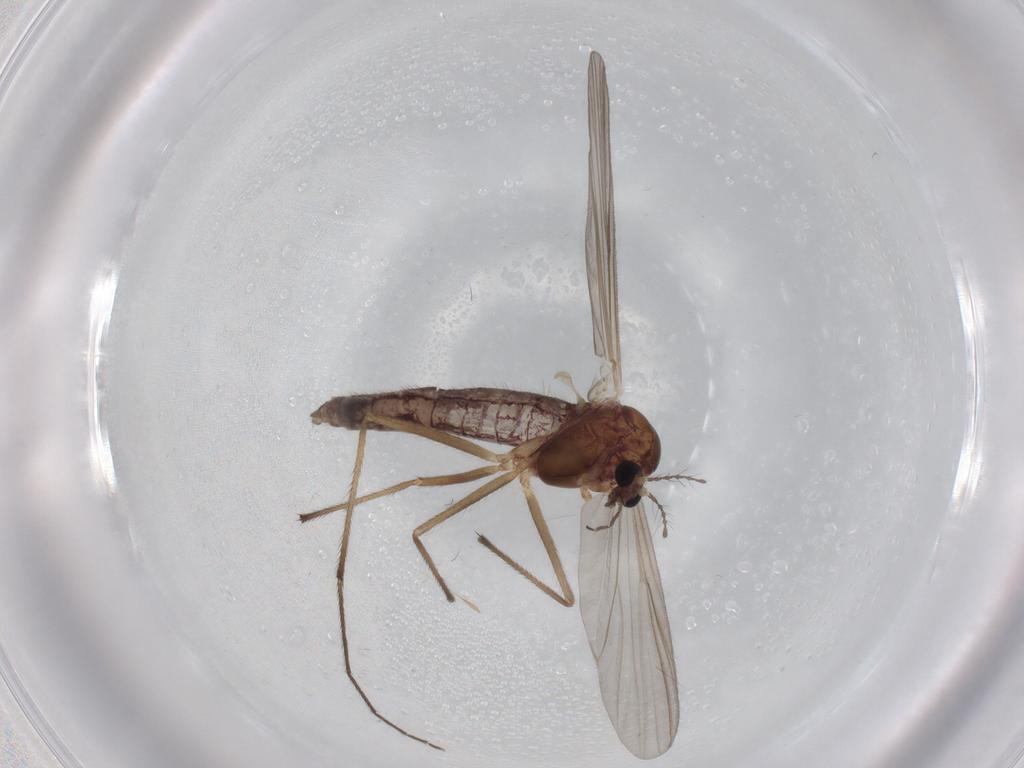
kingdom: Animalia
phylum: Arthropoda
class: Insecta
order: Diptera
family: Chironomidae
